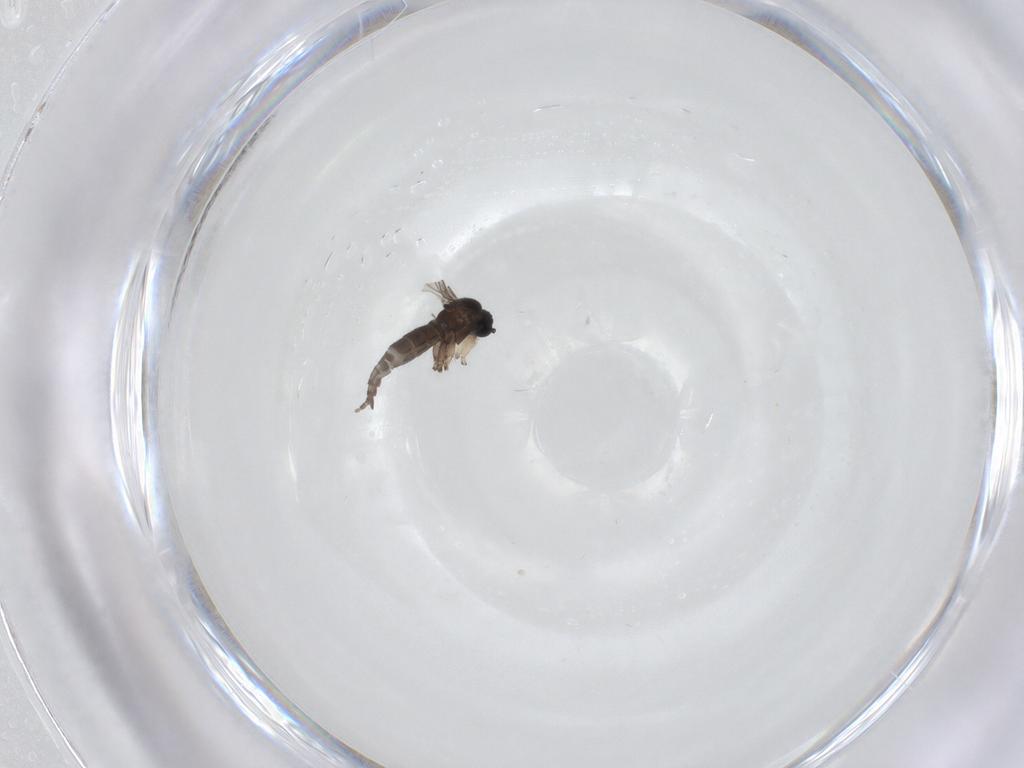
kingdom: Animalia
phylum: Arthropoda
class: Insecta
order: Diptera
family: Sciaridae
